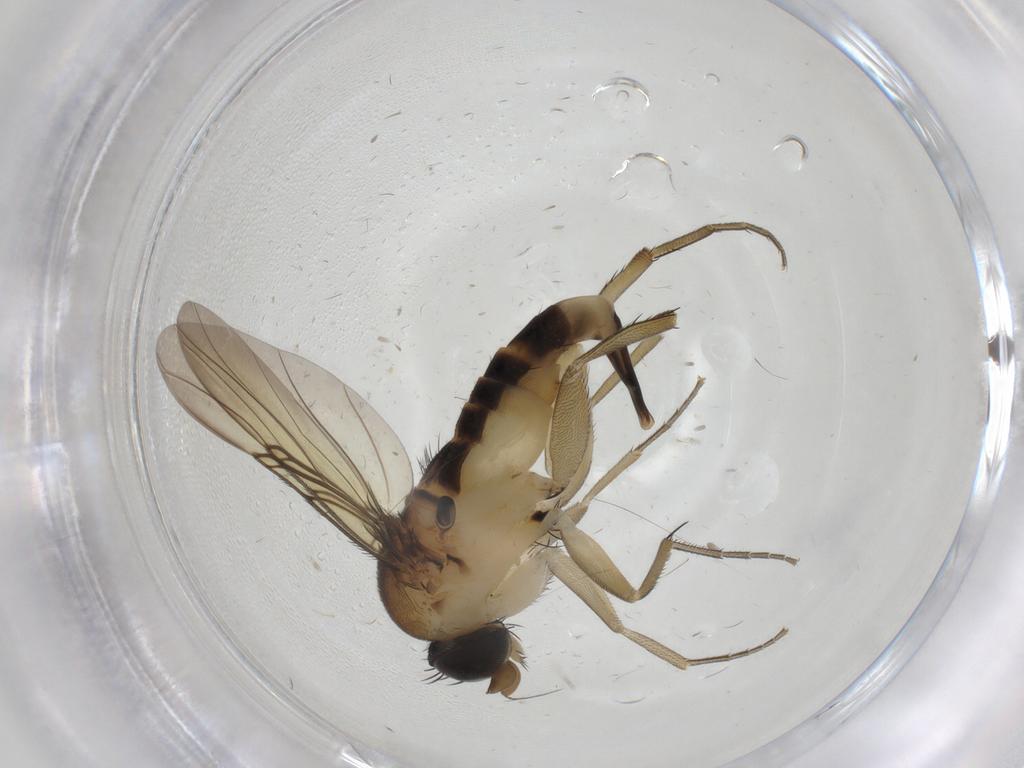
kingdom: Animalia
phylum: Arthropoda
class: Insecta
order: Diptera
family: Phoridae
